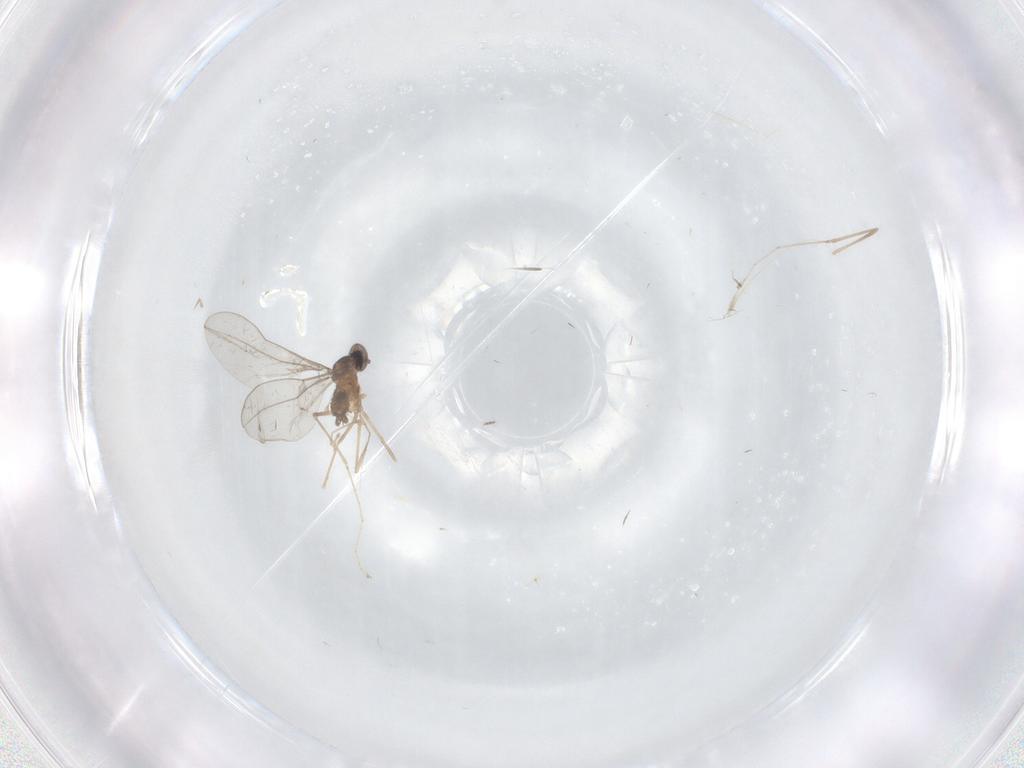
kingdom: Animalia
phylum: Arthropoda
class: Insecta
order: Diptera
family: Cecidomyiidae
